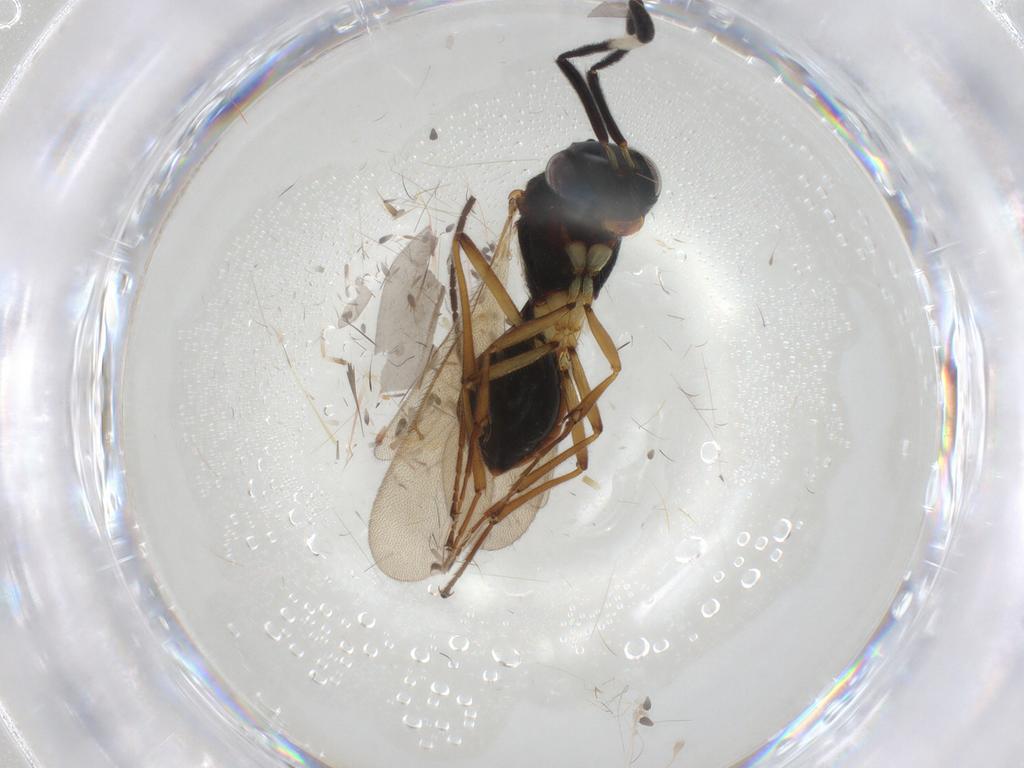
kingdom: Animalia
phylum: Arthropoda
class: Insecta
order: Hymenoptera
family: Scelionidae
